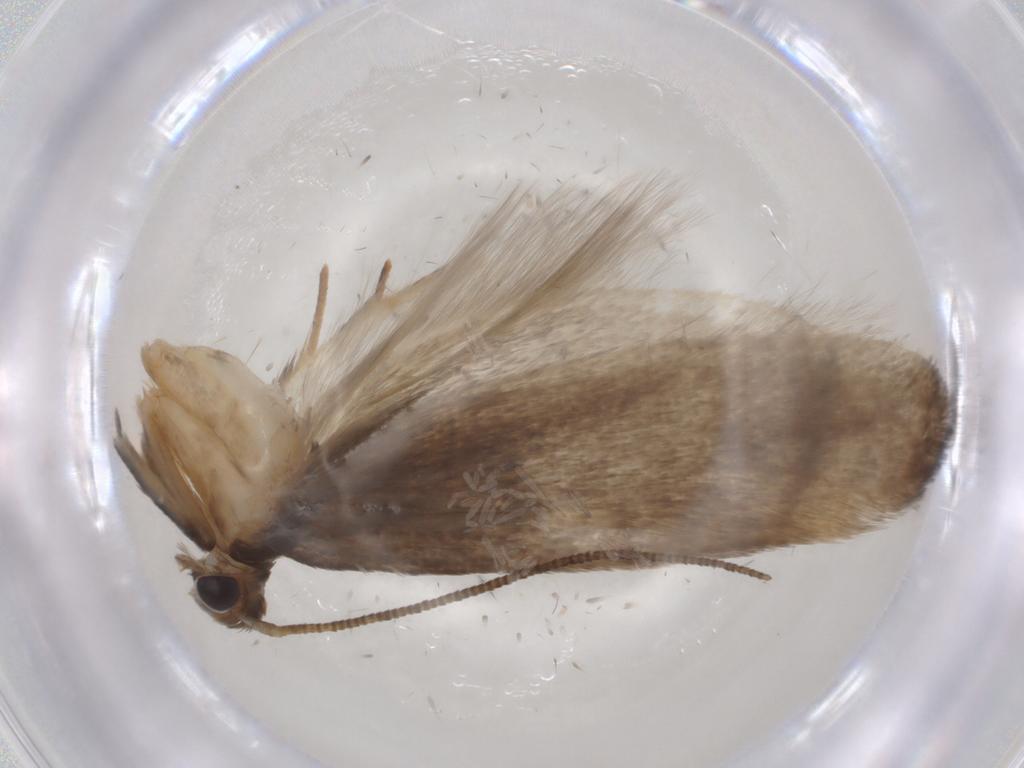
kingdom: Animalia
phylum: Arthropoda
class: Insecta
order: Lepidoptera
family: Gelechiidae
